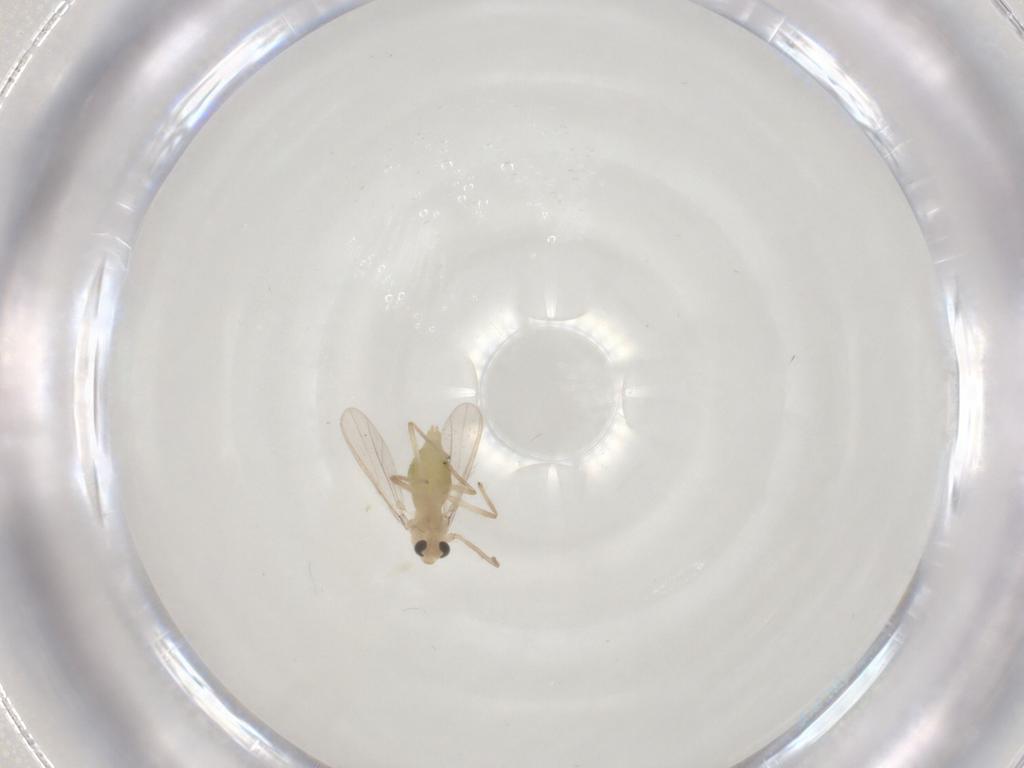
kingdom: Animalia
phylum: Arthropoda
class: Insecta
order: Diptera
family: Chironomidae
